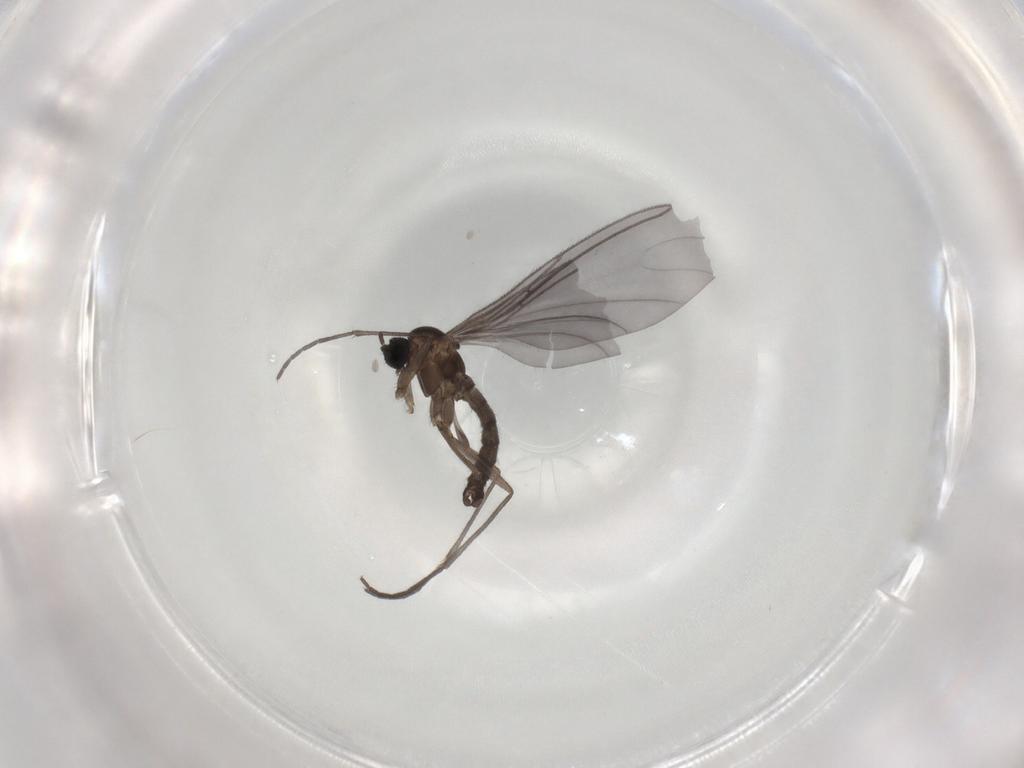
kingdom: Animalia
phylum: Arthropoda
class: Insecta
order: Diptera
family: Sciaridae
